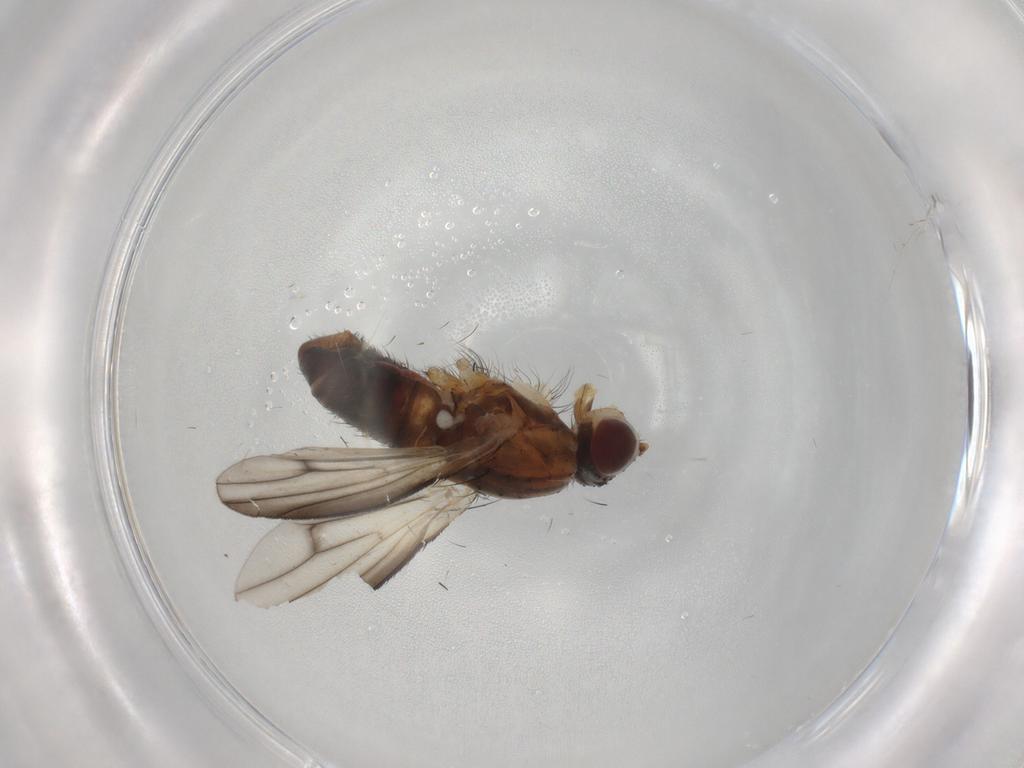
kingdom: Animalia
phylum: Arthropoda
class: Insecta
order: Diptera
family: Heleomyzidae
